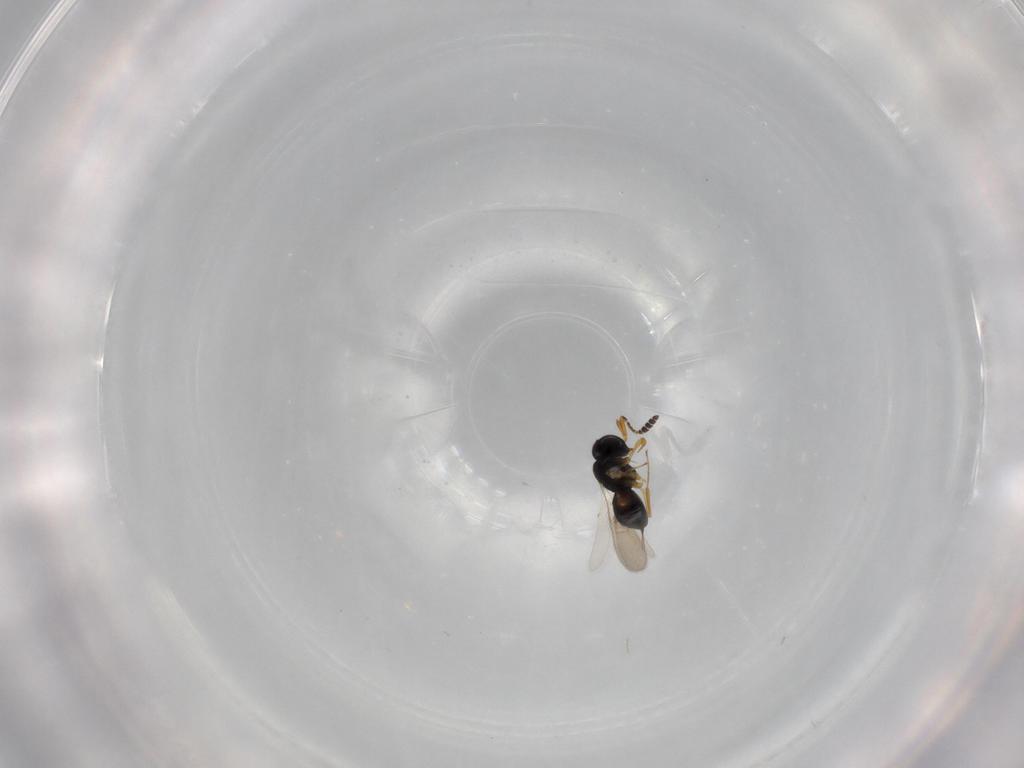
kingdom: Animalia
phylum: Arthropoda
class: Insecta
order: Hymenoptera
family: Scelionidae
